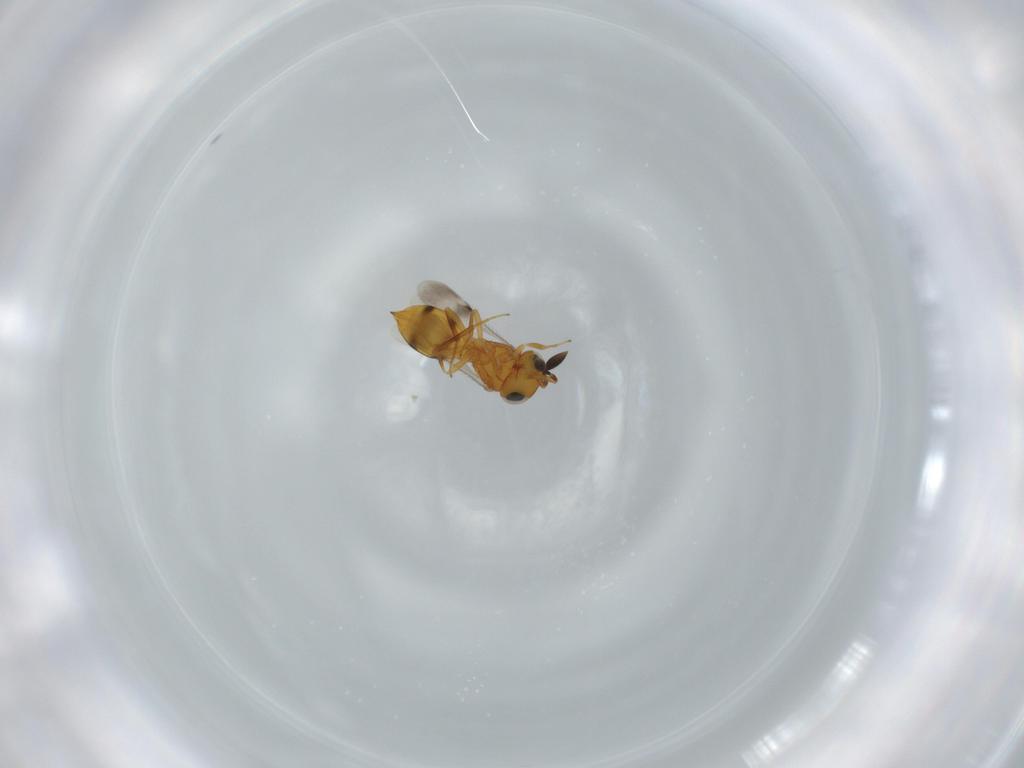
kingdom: Animalia
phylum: Arthropoda
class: Insecta
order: Hymenoptera
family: Scelionidae
